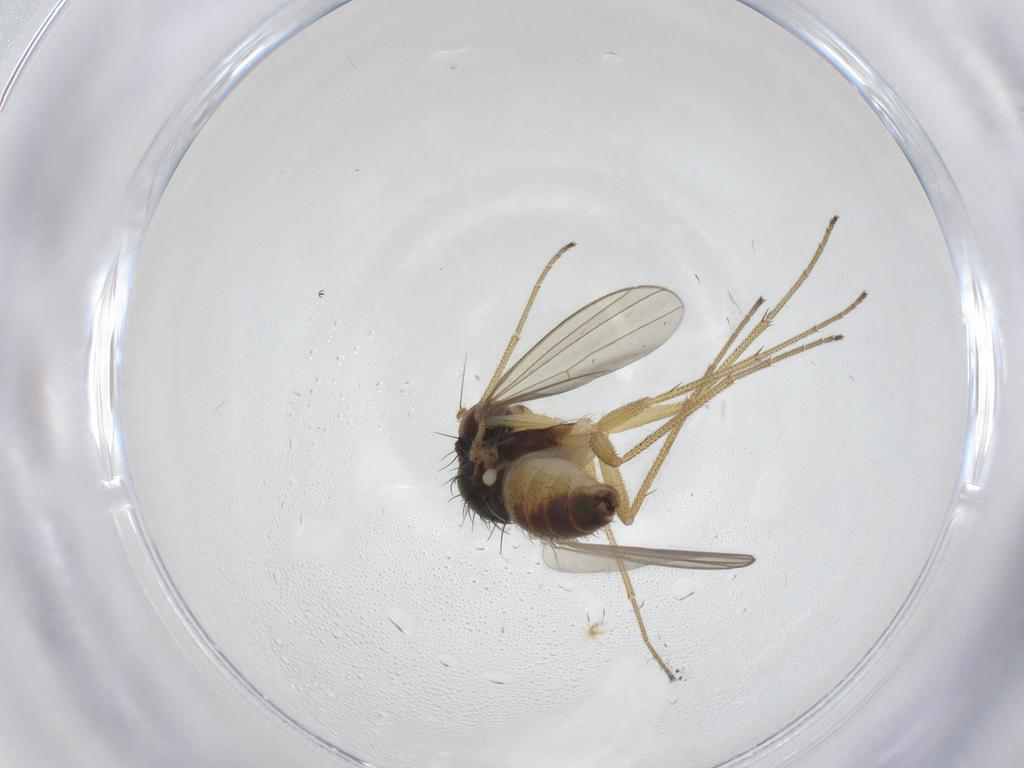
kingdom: Animalia
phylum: Arthropoda
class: Insecta
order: Diptera
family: Dolichopodidae
